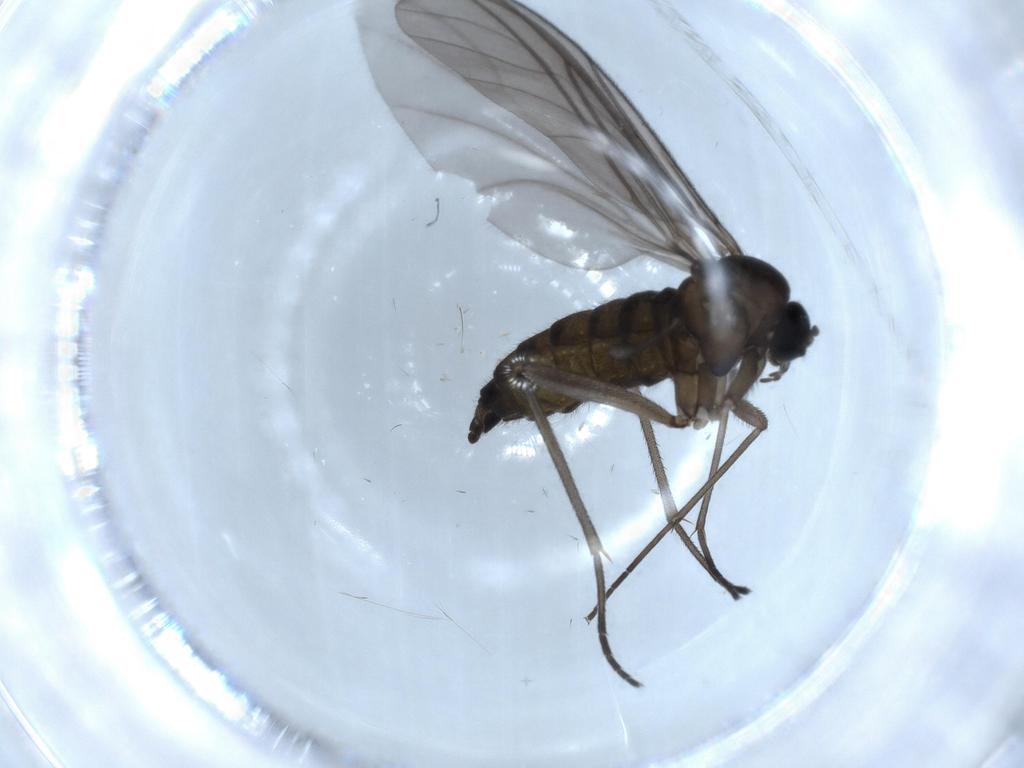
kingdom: Animalia
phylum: Arthropoda
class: Insecta
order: Diptera
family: Sciaridae
